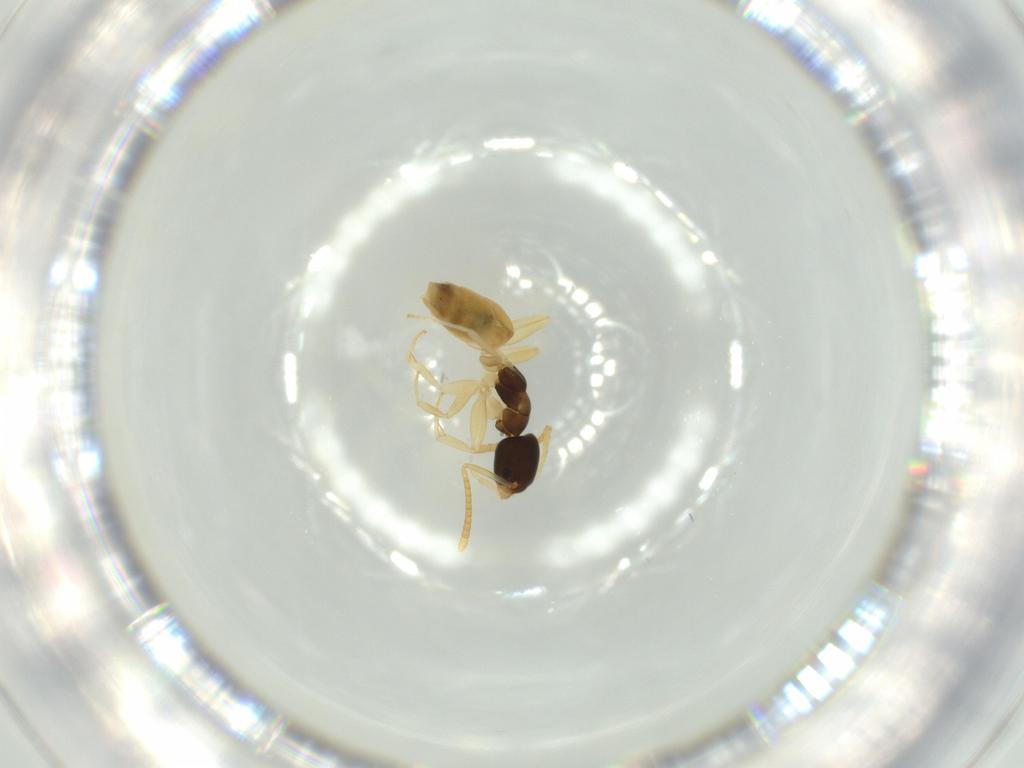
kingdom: Animalia
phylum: Arthropoda
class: Insecta
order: Hymenoptera
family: Formicidae
